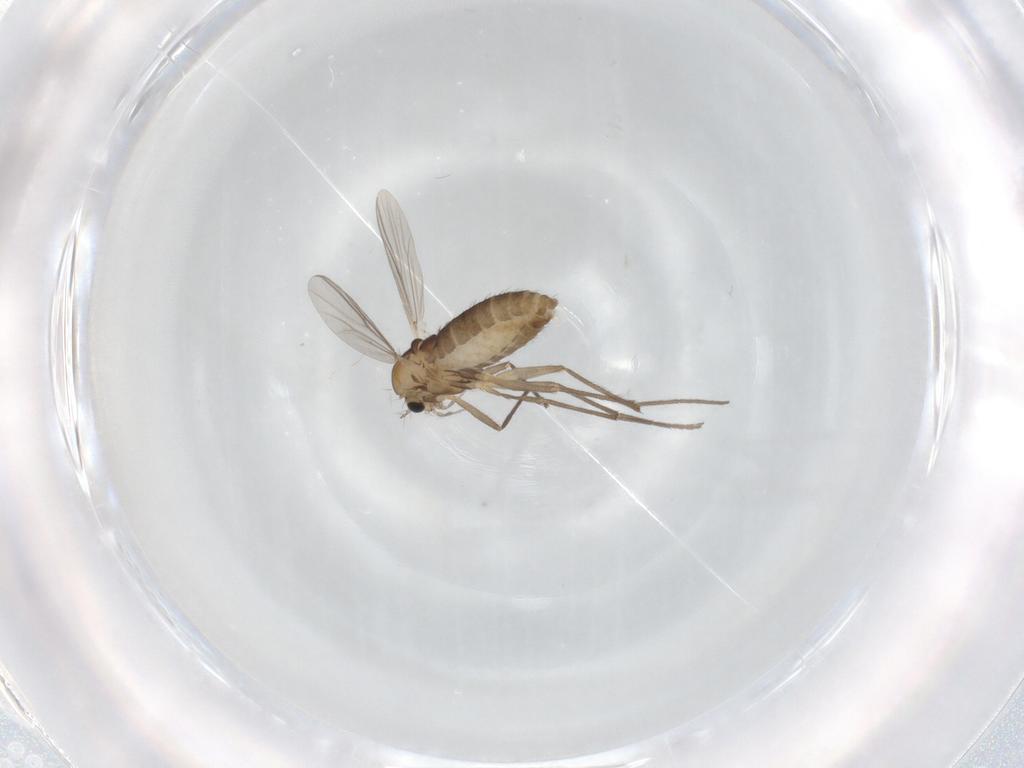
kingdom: Animalia
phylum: Arthropoda
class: Insecta
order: Diptera
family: Chironomidae
